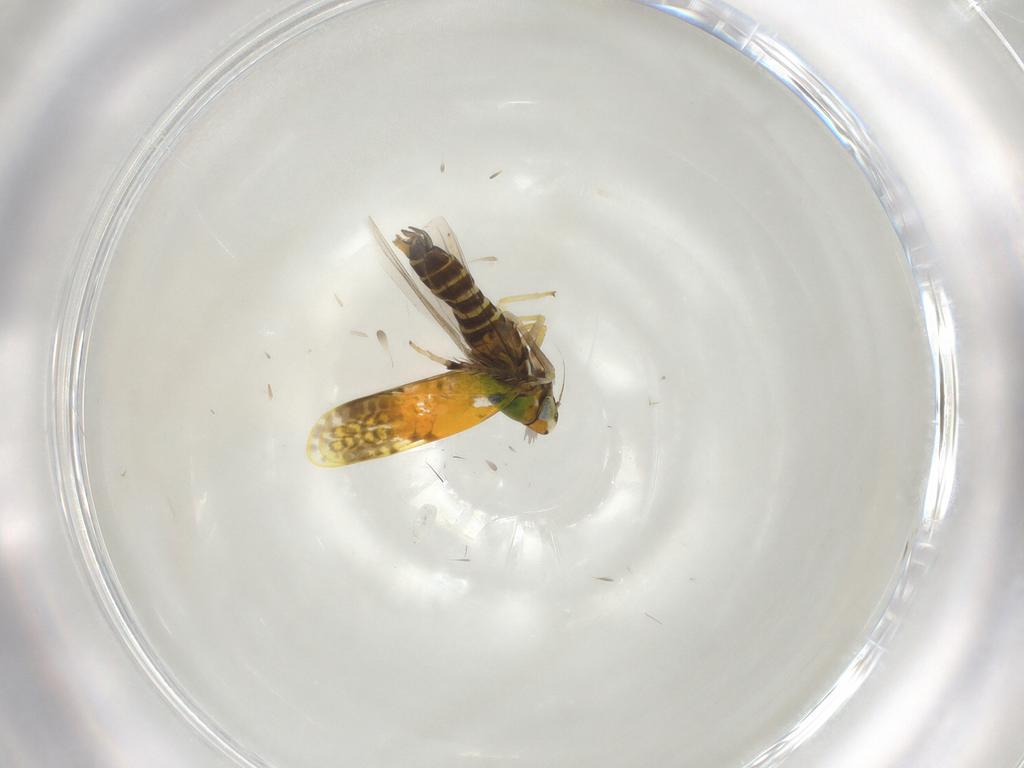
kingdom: Animalia
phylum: Arthropoda
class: Insecta
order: Hemiptera
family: Cicadellidae
